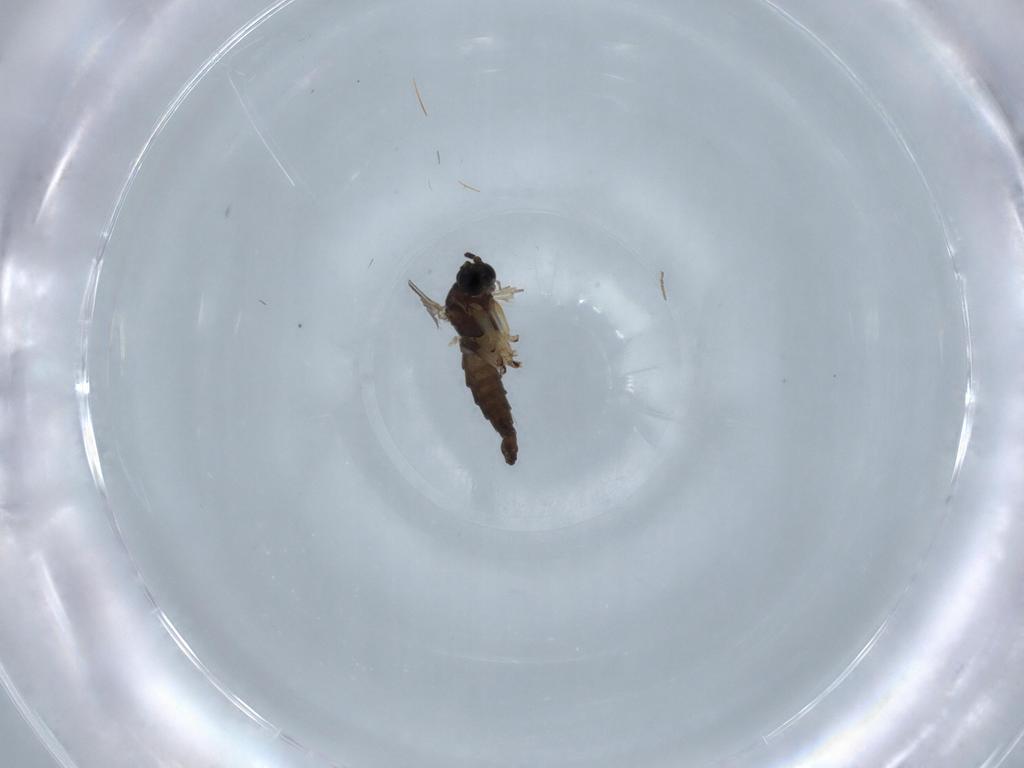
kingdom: Animalia
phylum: Arthropoda
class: Insecta
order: Diptera
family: Sciaridae
